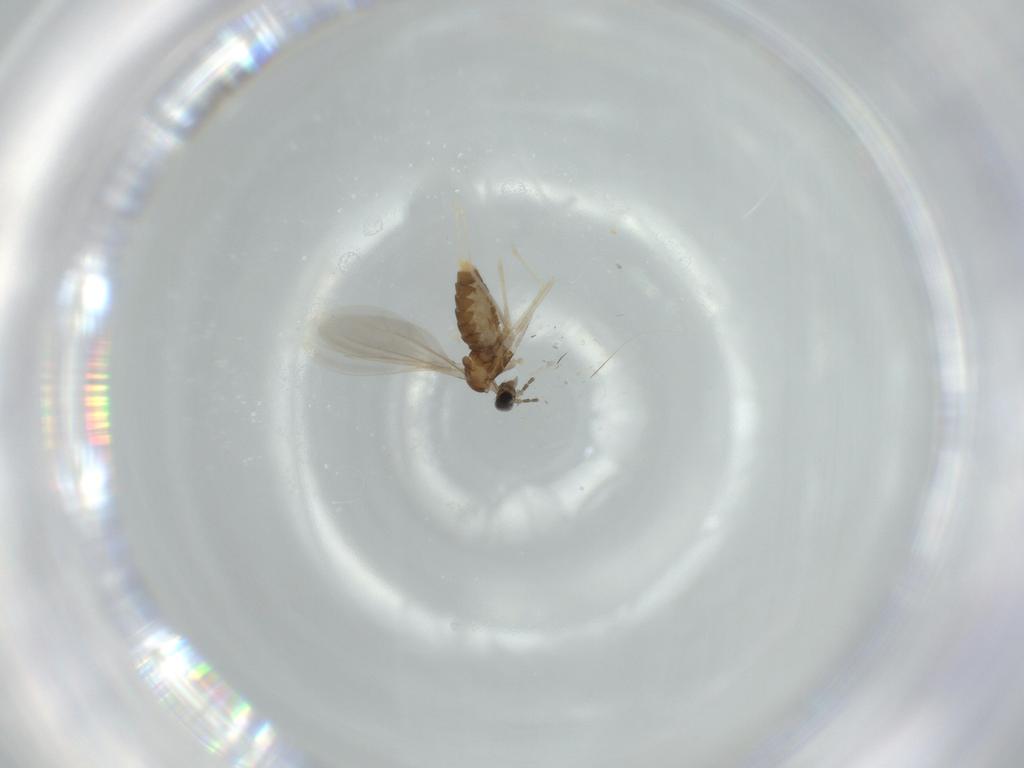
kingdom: Animalia
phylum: Arthropoda
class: Insecta
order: Diptera
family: Cecidomyiidae
